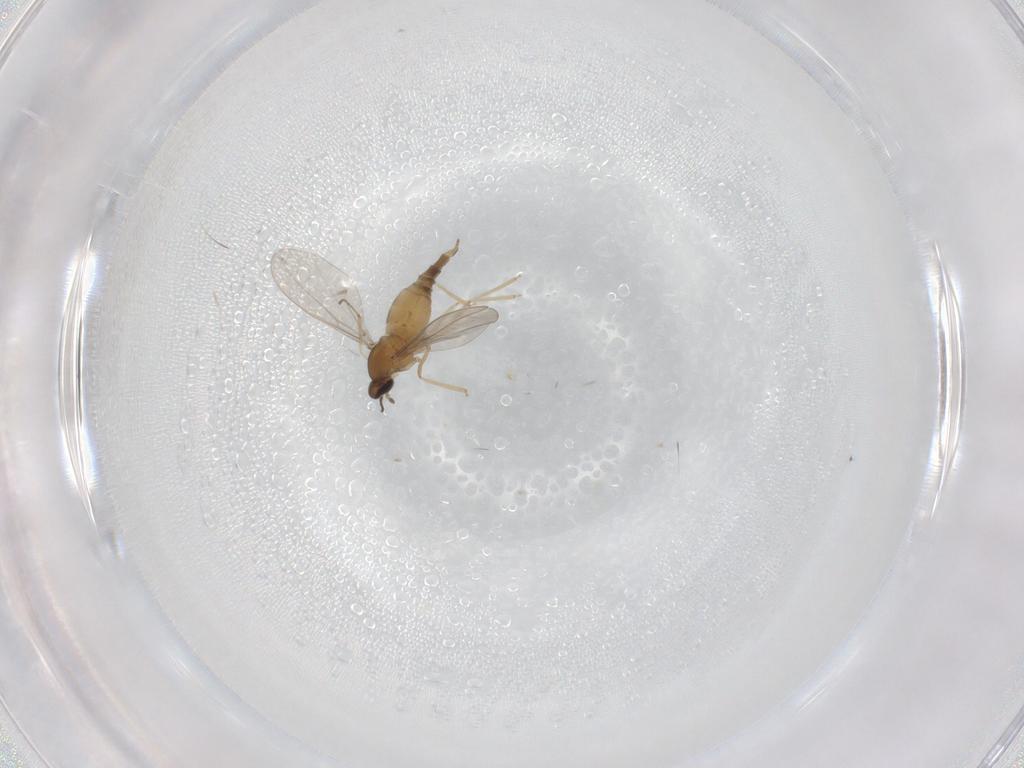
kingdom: Animalia
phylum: Arthropoda
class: Insecta
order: Diptera
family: Cecidomyiidae
